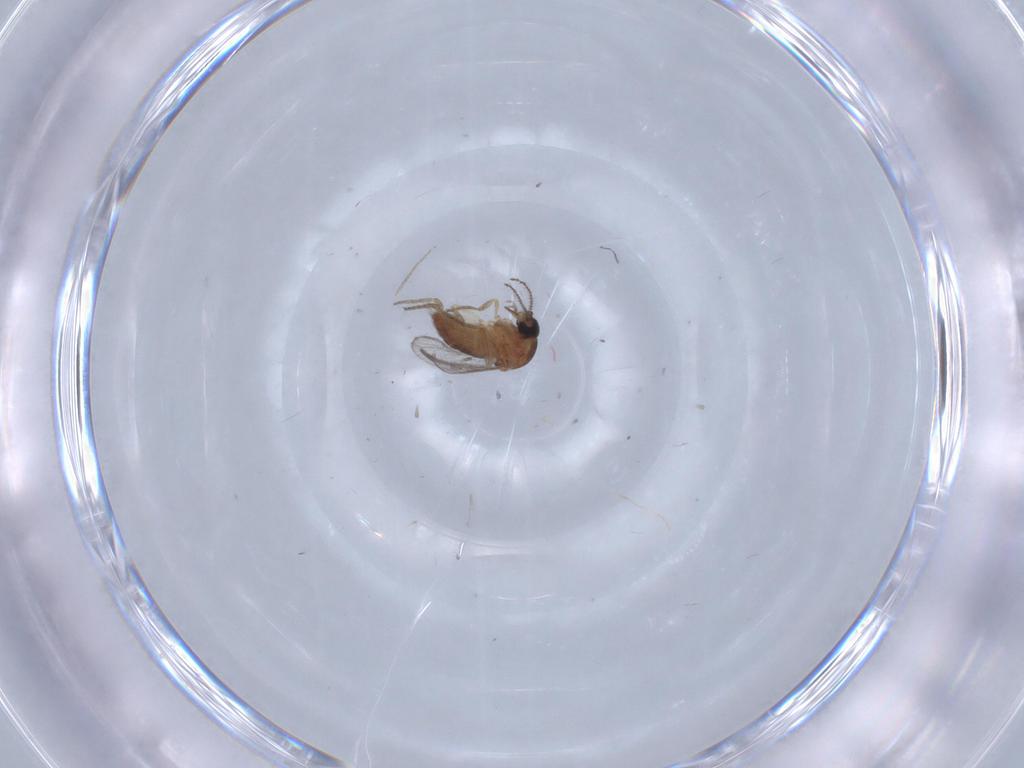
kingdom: Animalia
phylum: Arthropoda
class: Insecta
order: Diptera
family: Chironomidae
